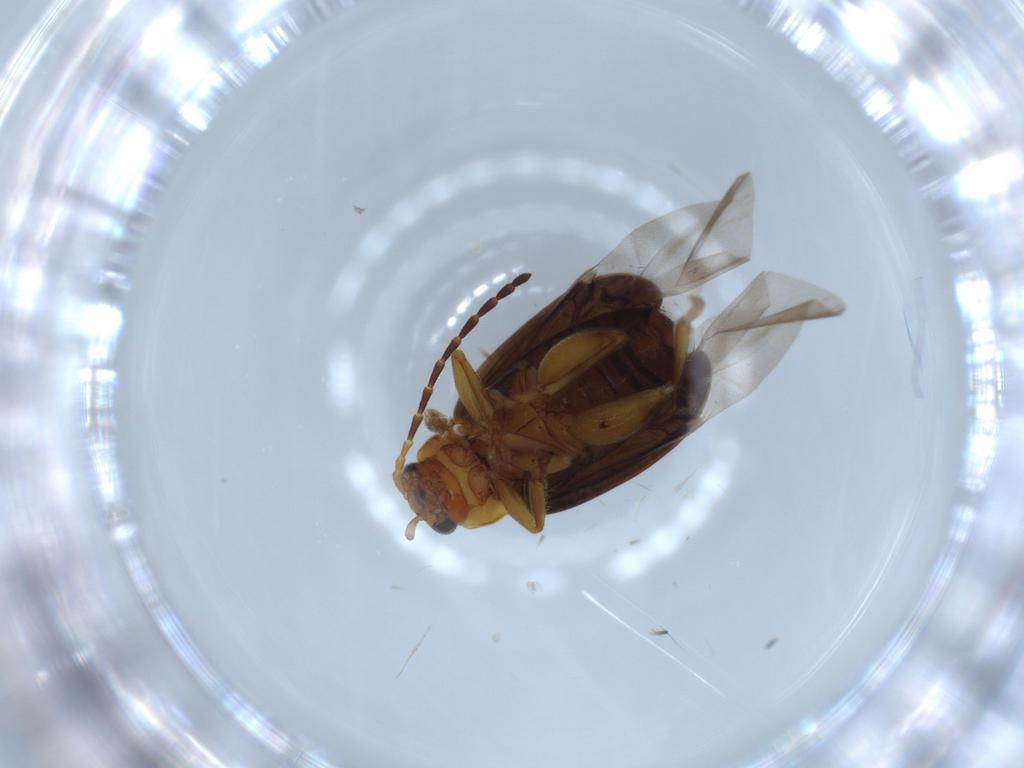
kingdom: Animalia
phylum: Arthropoda
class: Insecta
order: Coleoptera
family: Chrysomelidae
